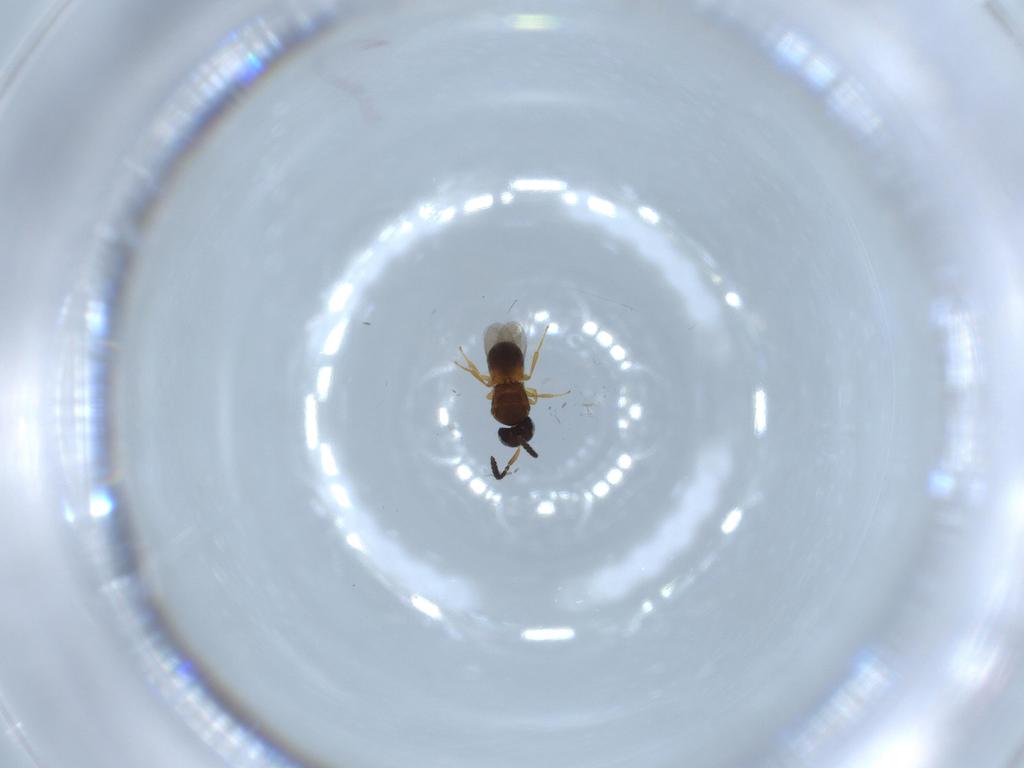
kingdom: Animalia
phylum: Arthropoda
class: Insecta
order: Hymenoptera
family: Scelionidae
